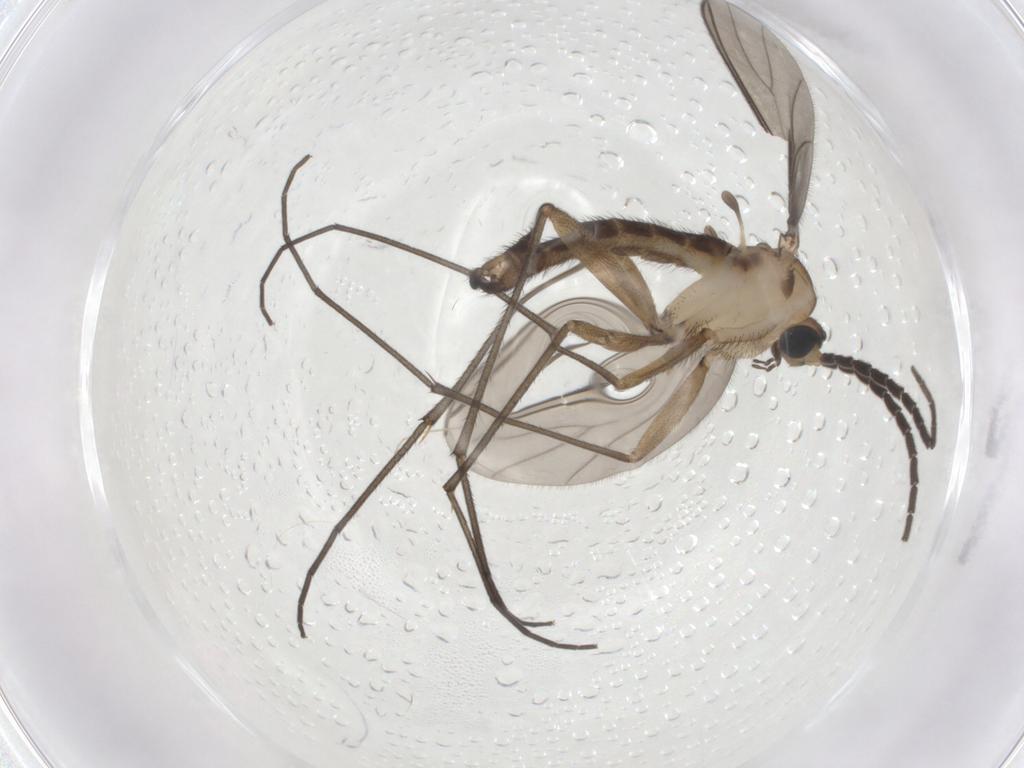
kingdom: Animalia
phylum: Arthropoda
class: Insecta
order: Diptera
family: Sciaridae
